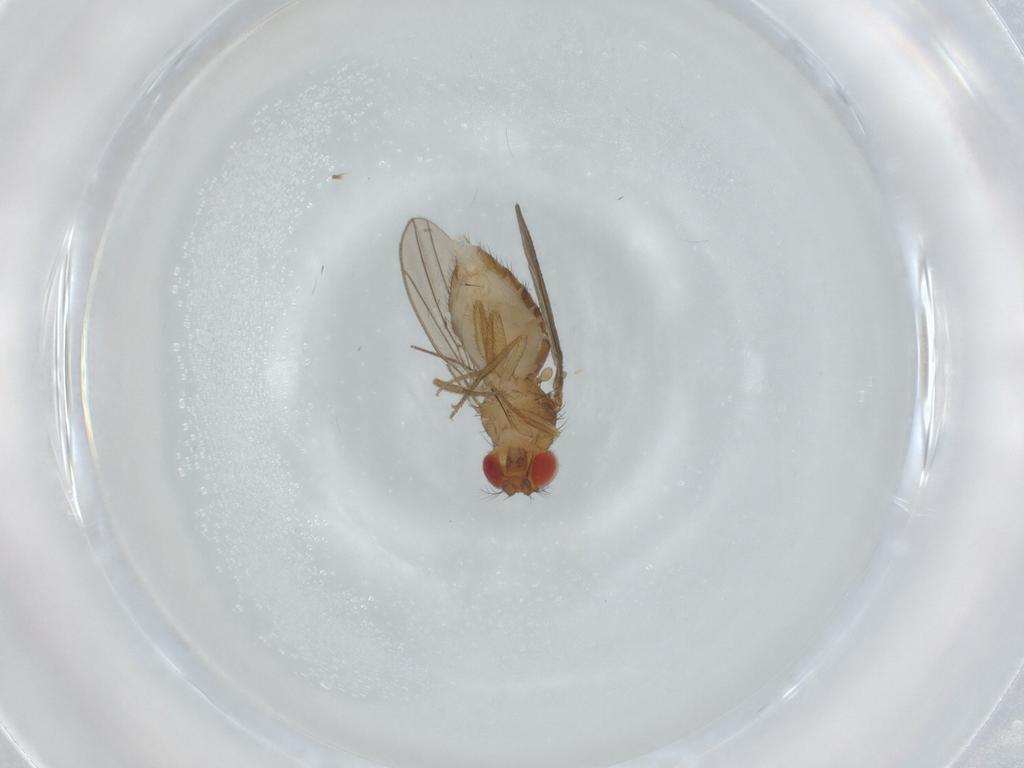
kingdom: Animalia
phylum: Arthropoda
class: Insecta
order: Diptera
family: Drosophilidae
